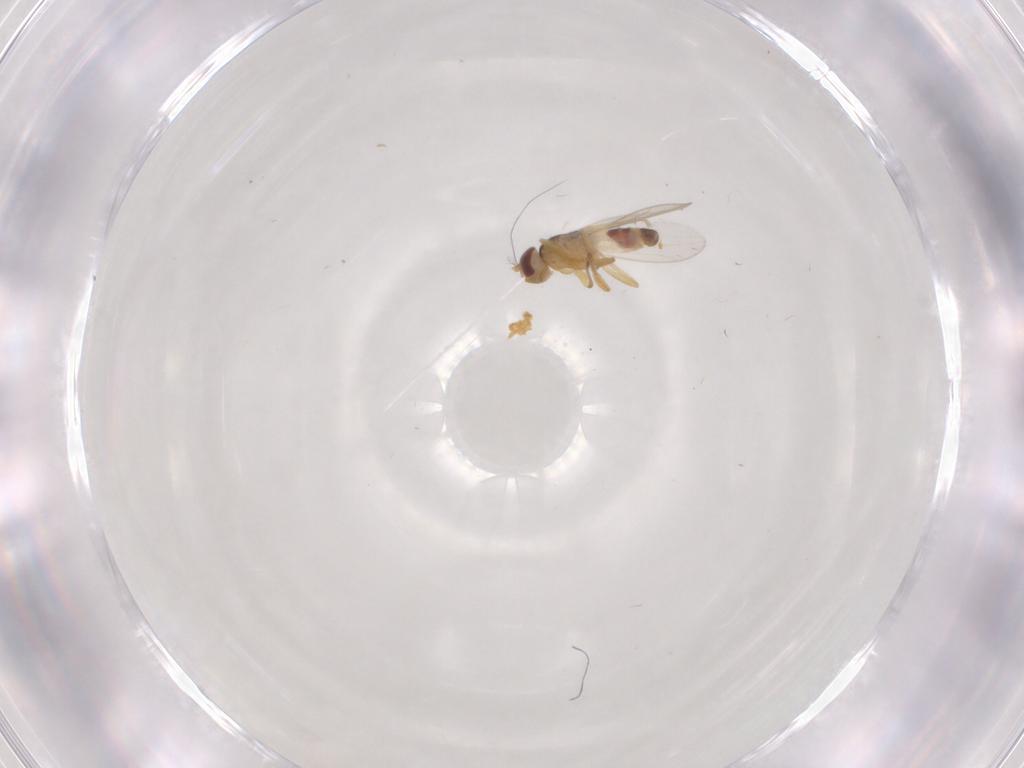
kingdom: Animalia
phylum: Arthropoda
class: Insecta
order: Diptera
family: Periscelididae
